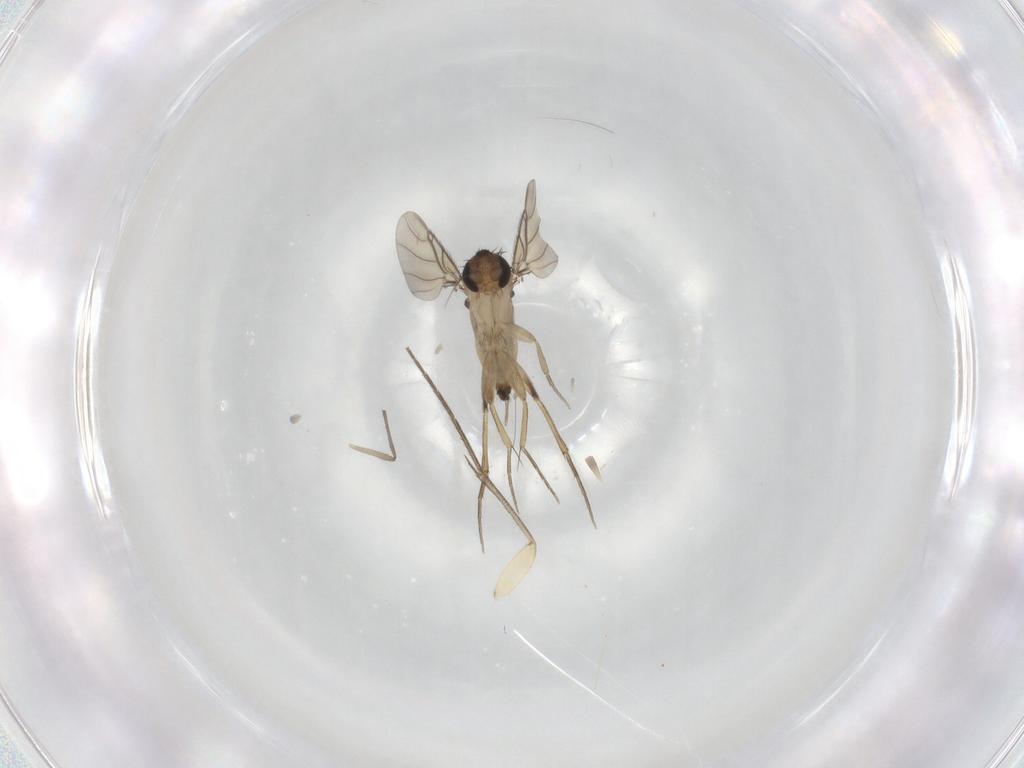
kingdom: Animalia
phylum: Arthropoda
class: Insecta
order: Diptera
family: Phoridae
